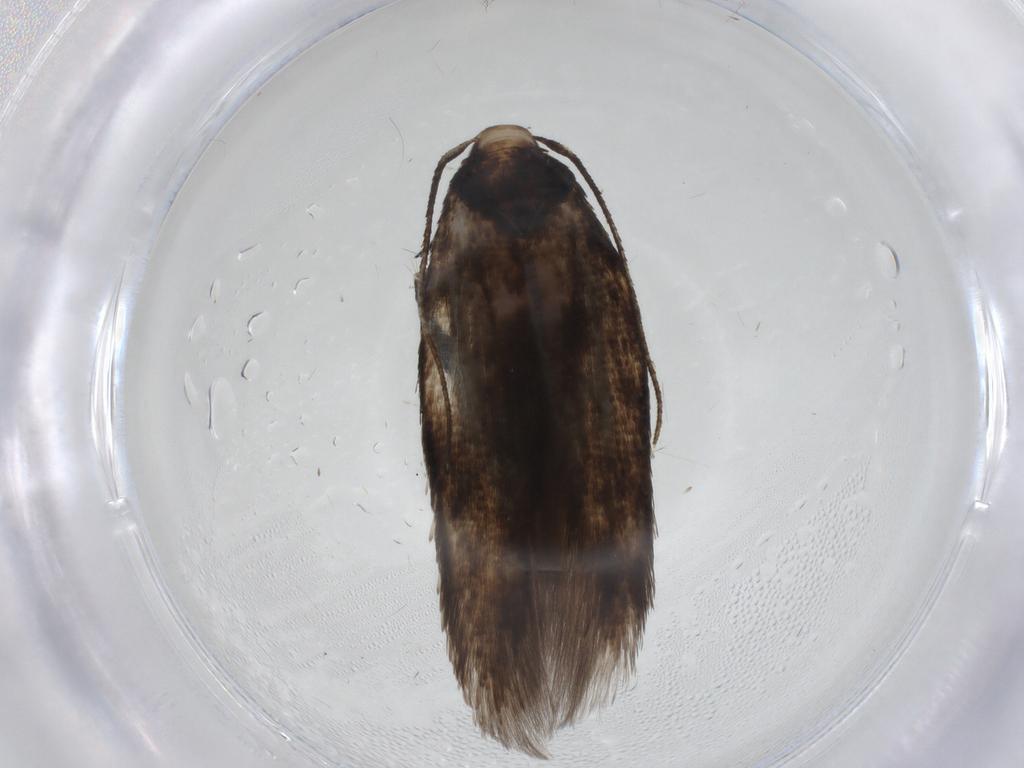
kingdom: Animalia
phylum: Arthropoda
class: Insecta
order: Lepidoptera
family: Cosmopterigidae
